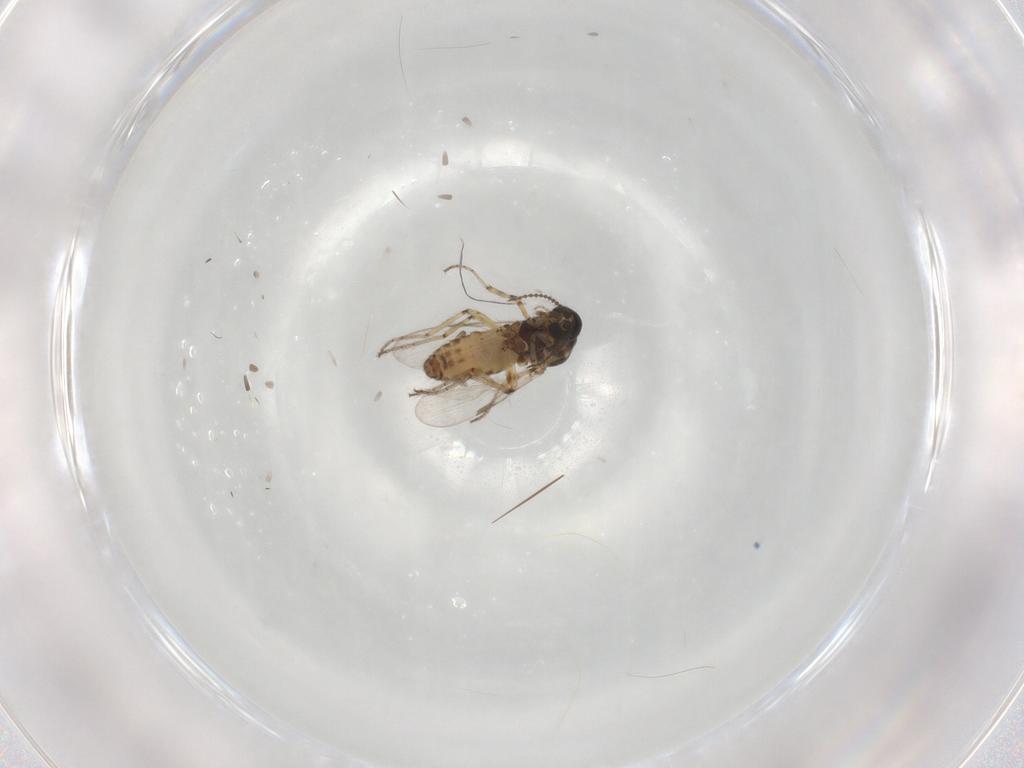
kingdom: Animalia
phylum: Arthropoda
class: Insecta
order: Diptera
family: Ceratopogonidae
